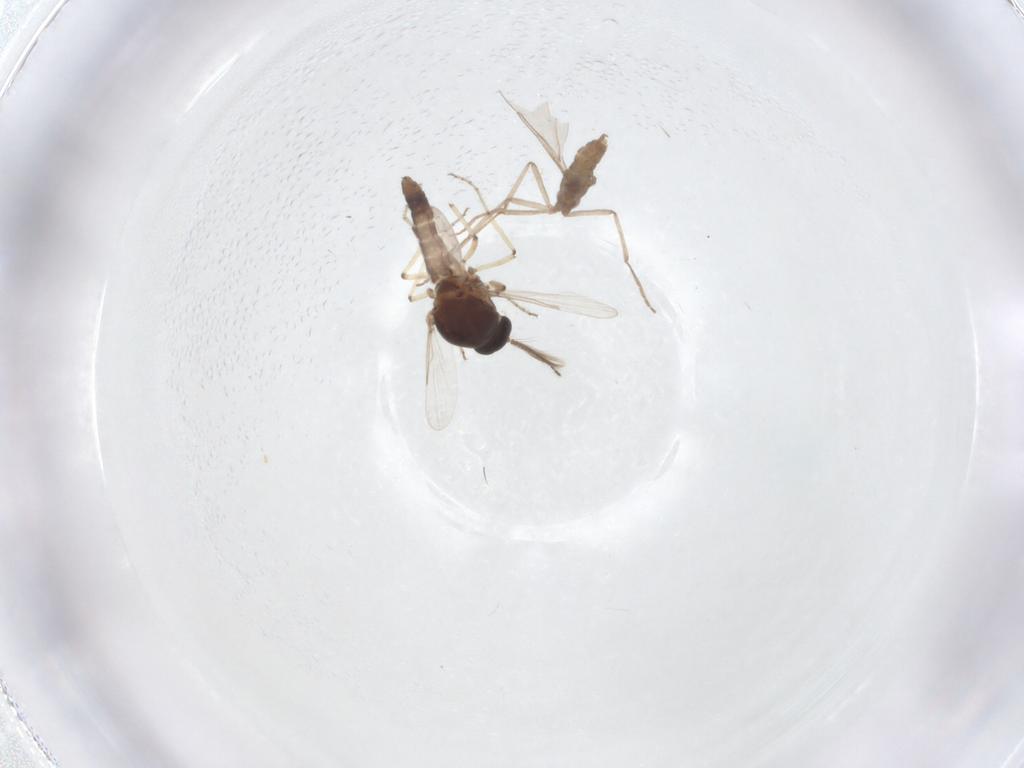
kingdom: Animalia
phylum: Arthropoda
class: Insecta
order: Diptera
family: Ceratopogonidae
